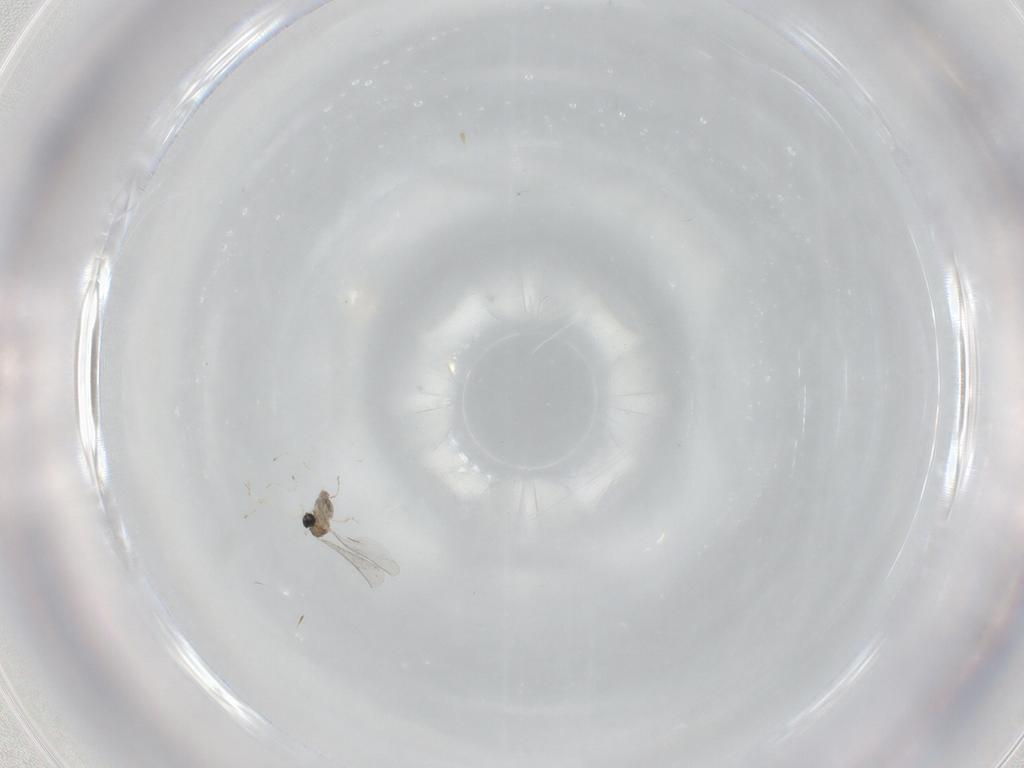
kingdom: Animalia
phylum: Arthropoda
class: Insecta
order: Diptera
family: Cecidomyiidae
